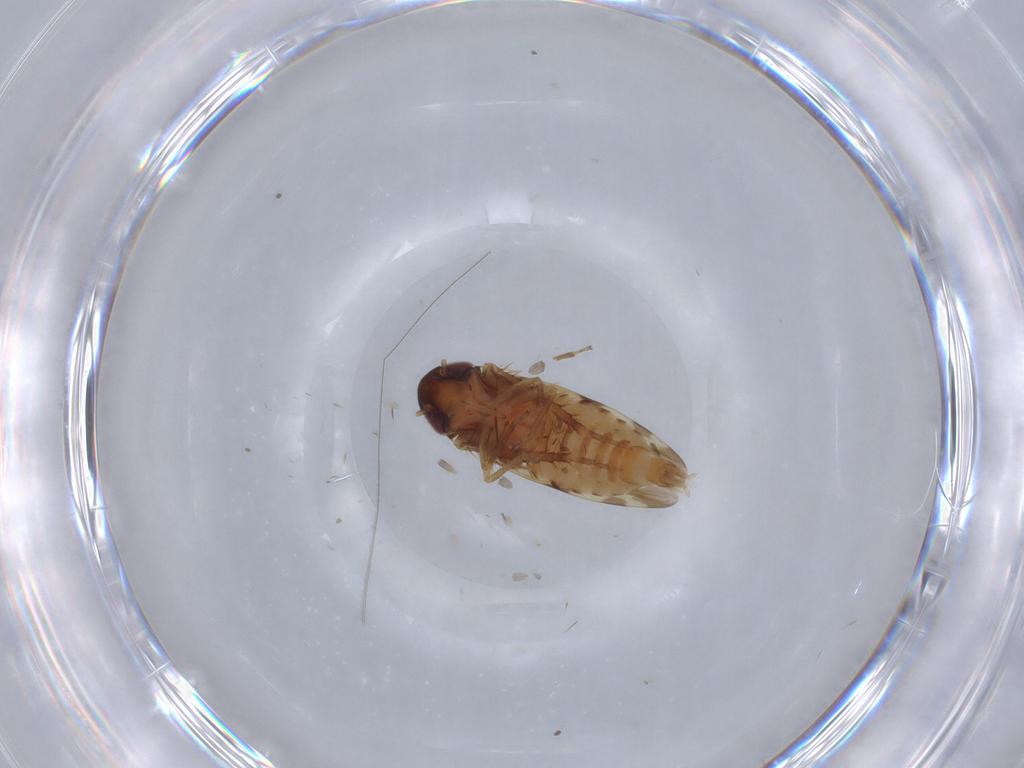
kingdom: Animalia
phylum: Arthropoda
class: Insecta
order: Hemiptera
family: Cicadellidae
